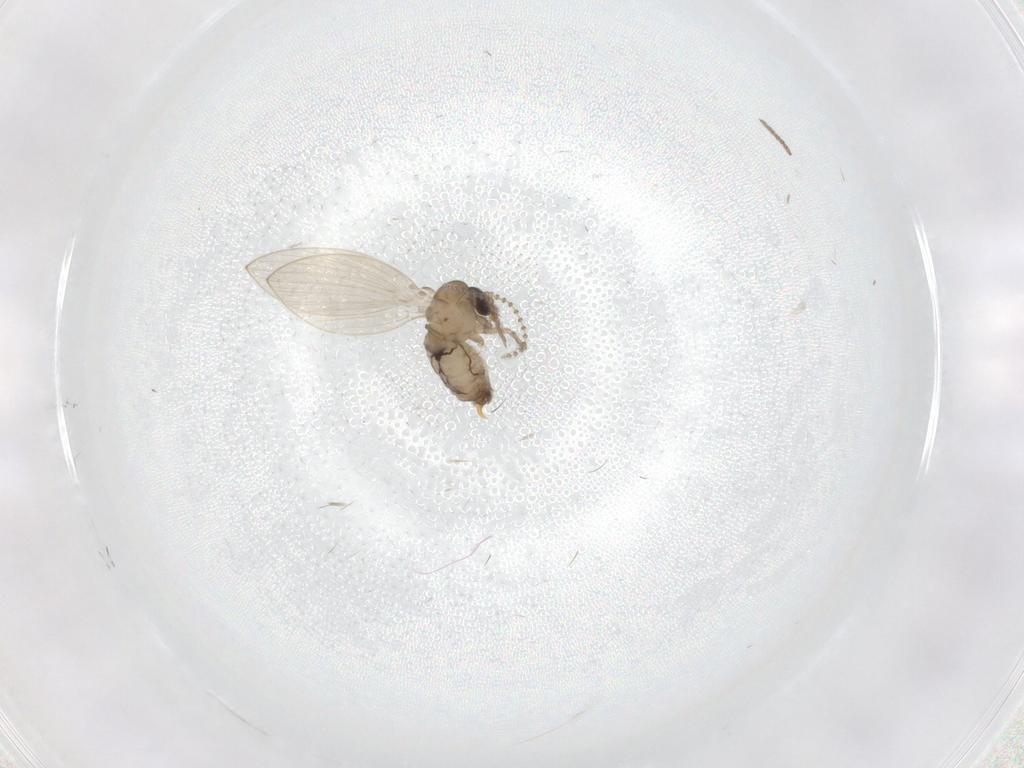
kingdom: Animalia
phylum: Arthropoda
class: Insecta
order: Diptera
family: Psychodidae
